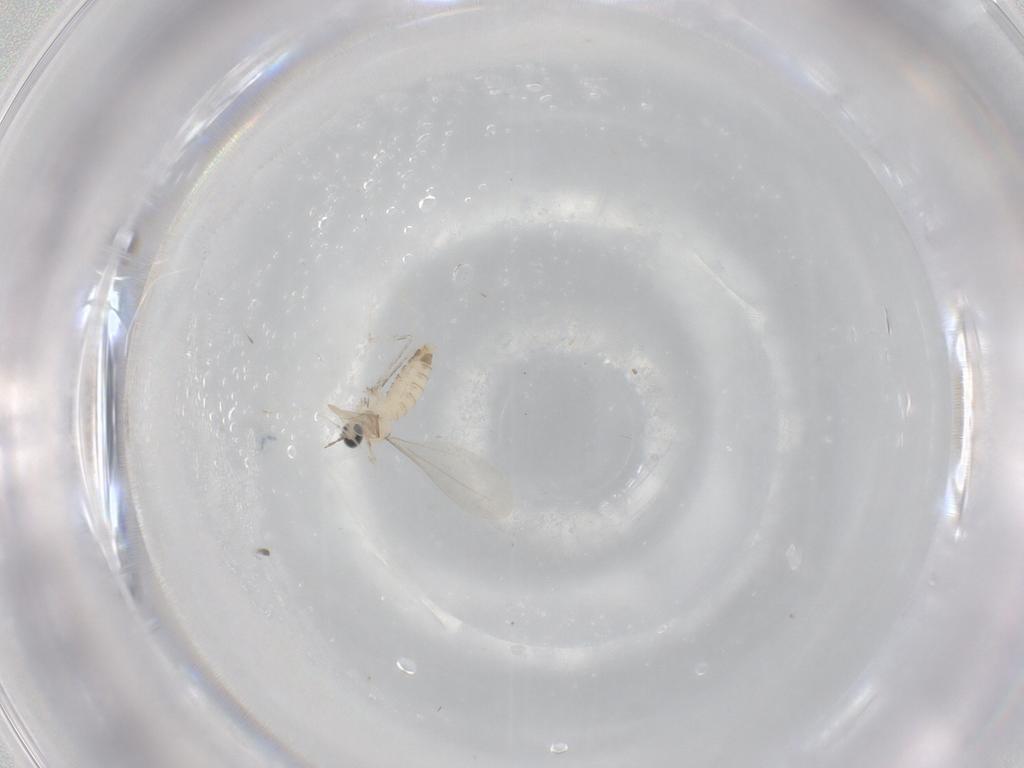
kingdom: Animalia
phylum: Arthropoda
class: Insecta
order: Diptera
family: Cecidomyiidae
